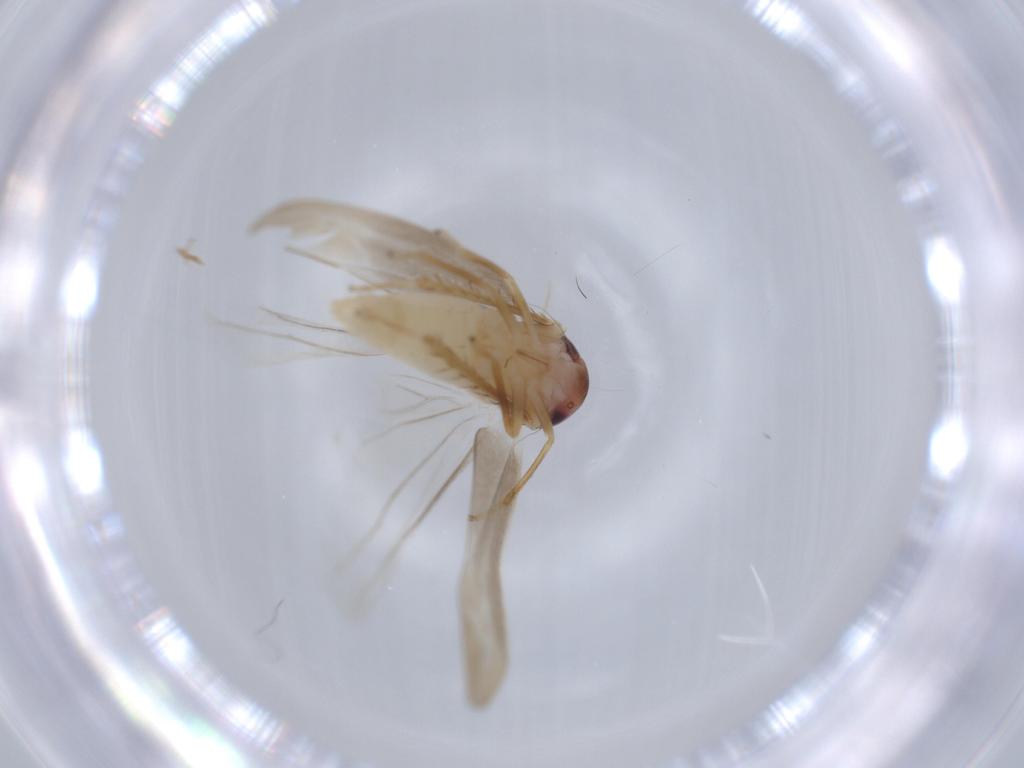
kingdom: Animalia
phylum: Arthropoda
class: Insecta
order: Hemiptera
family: Cicadellidae
